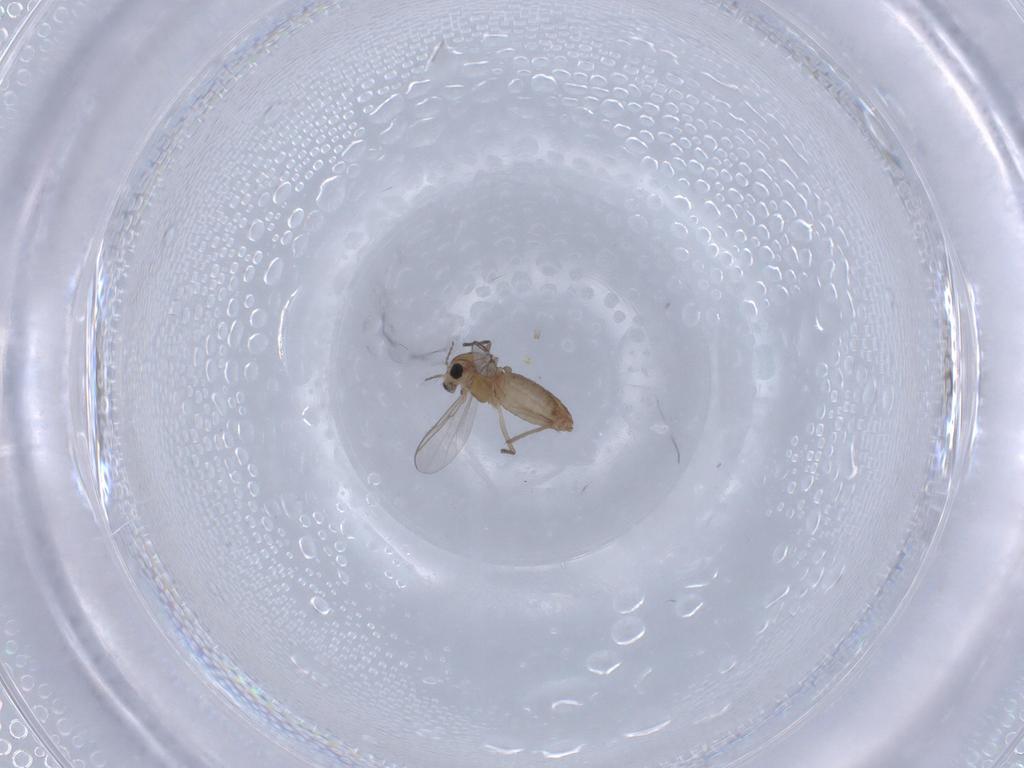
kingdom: Animalia
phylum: Arthropoda
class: Insecta
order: Diptera
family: Chironomidae
